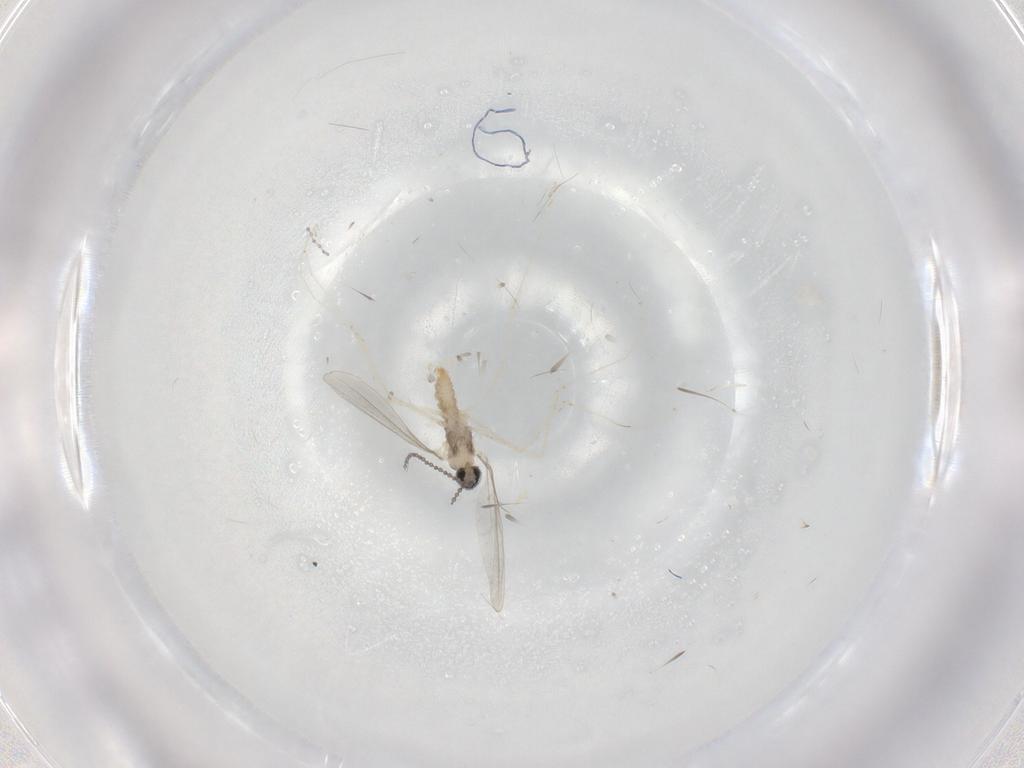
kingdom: Animalia
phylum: Arthropoda
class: Insecta
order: Diptera
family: Cecidomyiidae
